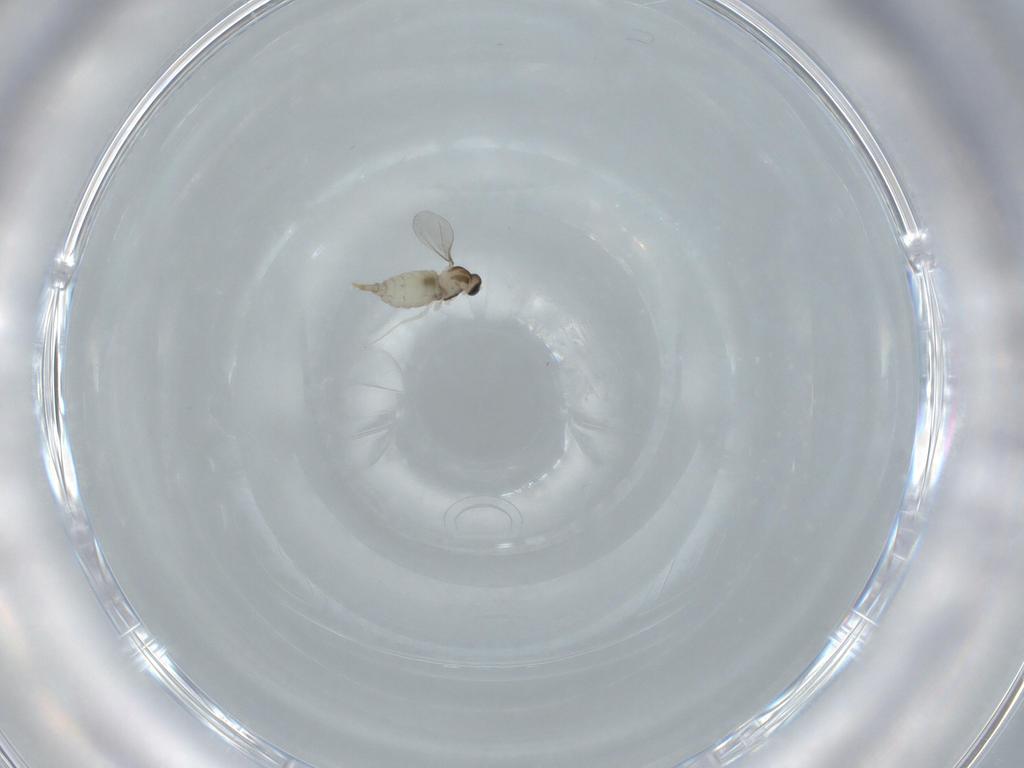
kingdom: Animalia
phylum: Arthropoda
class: Insecta
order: Diptera
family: Cecidomyiidae
